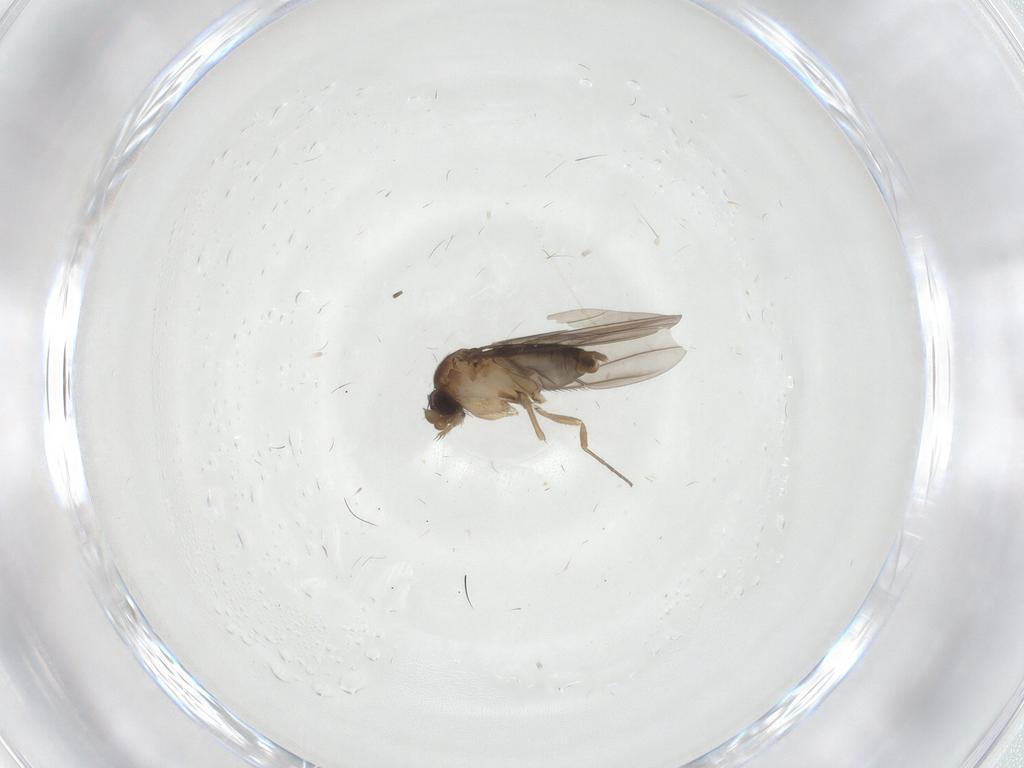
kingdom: Animalia
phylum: Arthropoda
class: Insecta
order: Diptera
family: Phoridae
